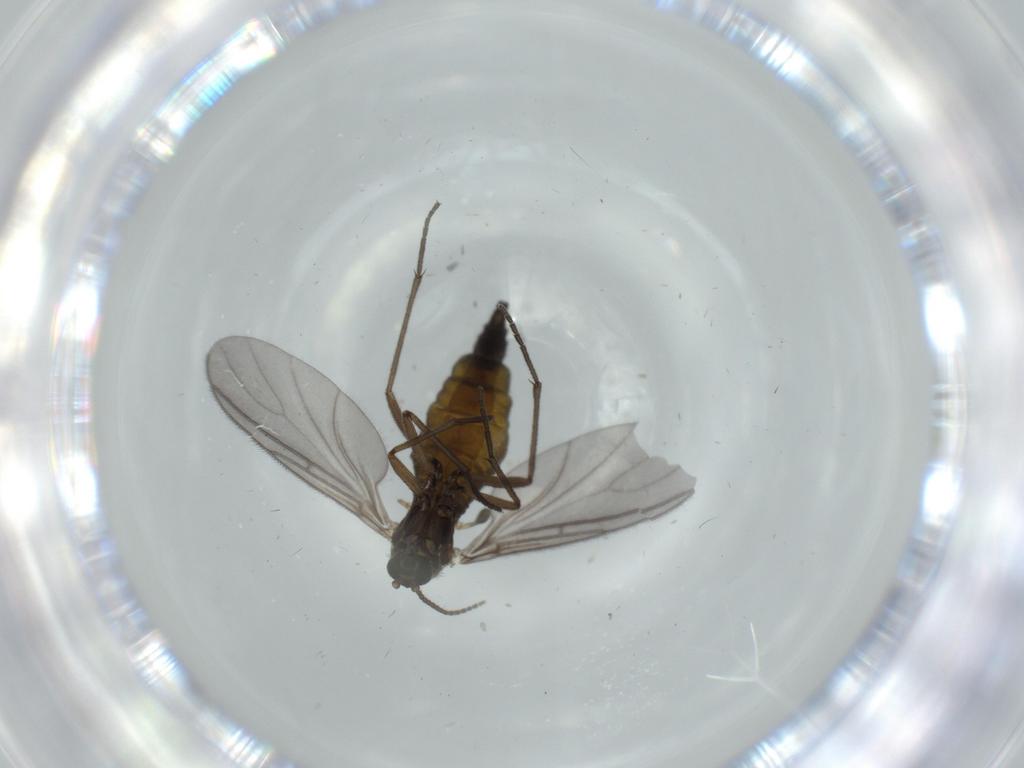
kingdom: Animalia
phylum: Arthropoda
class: Insecta
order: Diptera
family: Sciaridae
